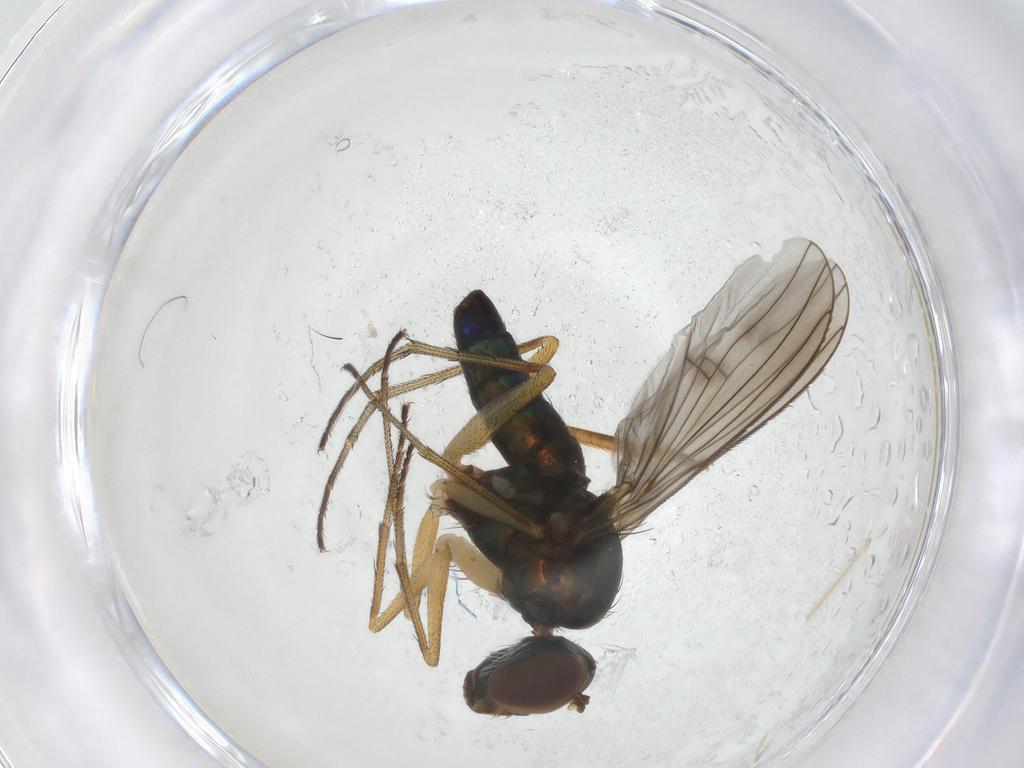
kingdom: Animalia
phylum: Arthropoda
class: Insecta
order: Diptera
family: Dolichopodidae
